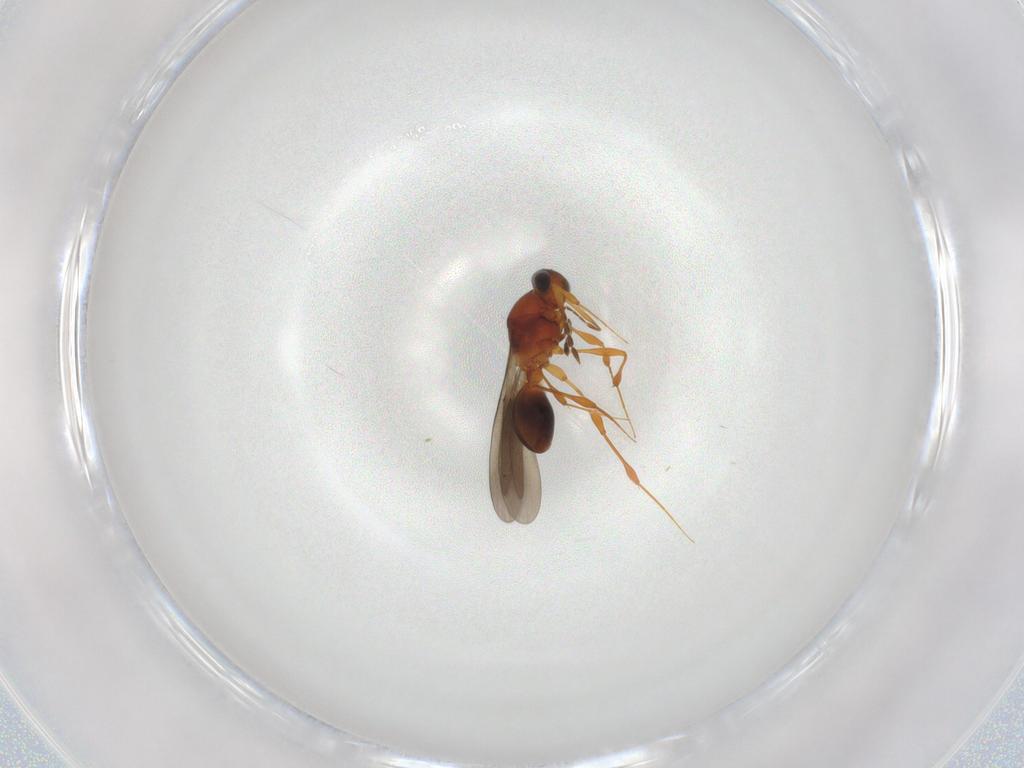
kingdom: Animalia
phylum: Arthropoda
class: Insecta
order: Hymenoptera
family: Platygastridae
